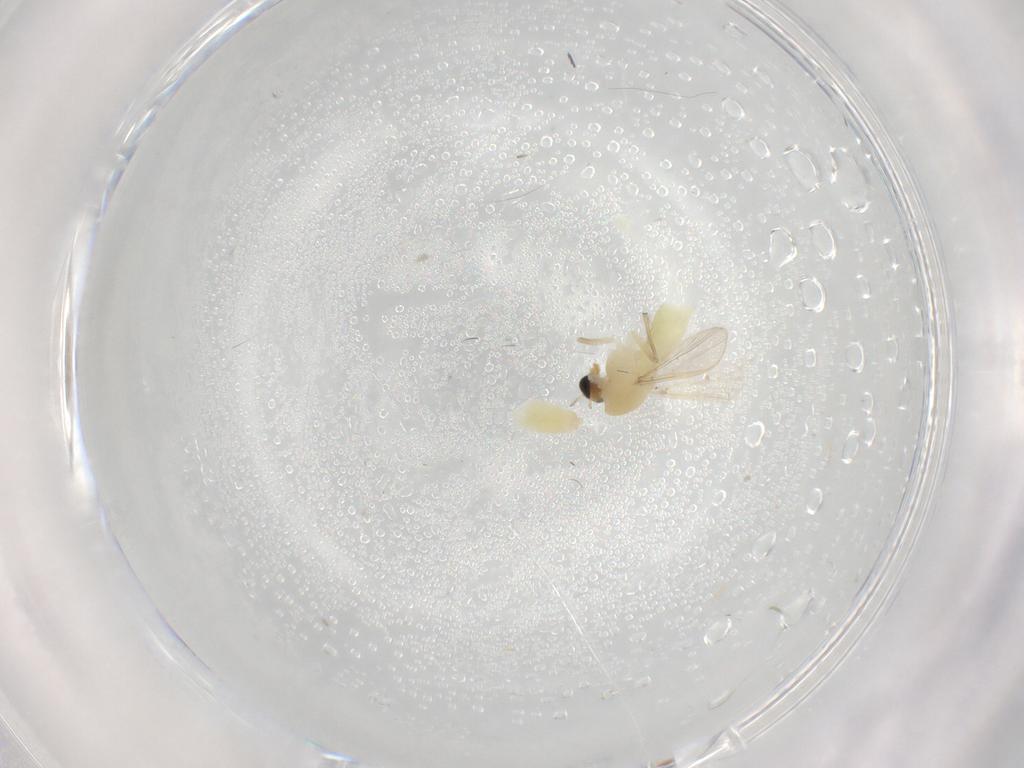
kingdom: Animalia
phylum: Arthropoda
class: Insecta
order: Diptera
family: Chironomidae
